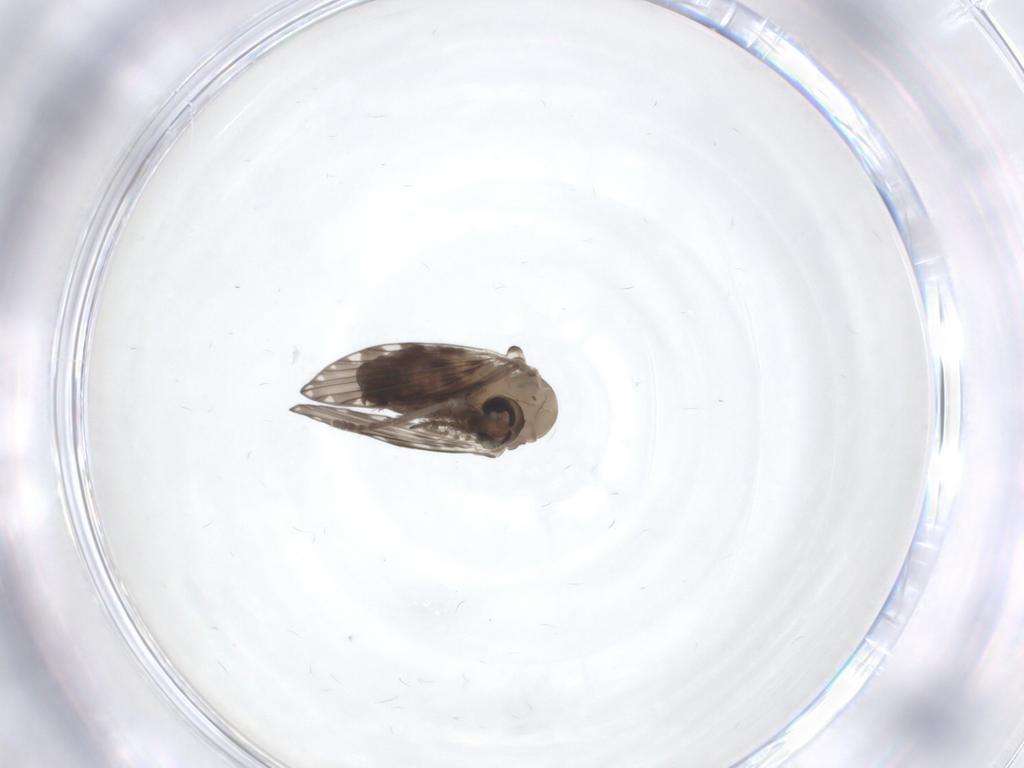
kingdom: Animalia
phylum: Arthropoda
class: Insecta
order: Diptera
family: Psychodidae
